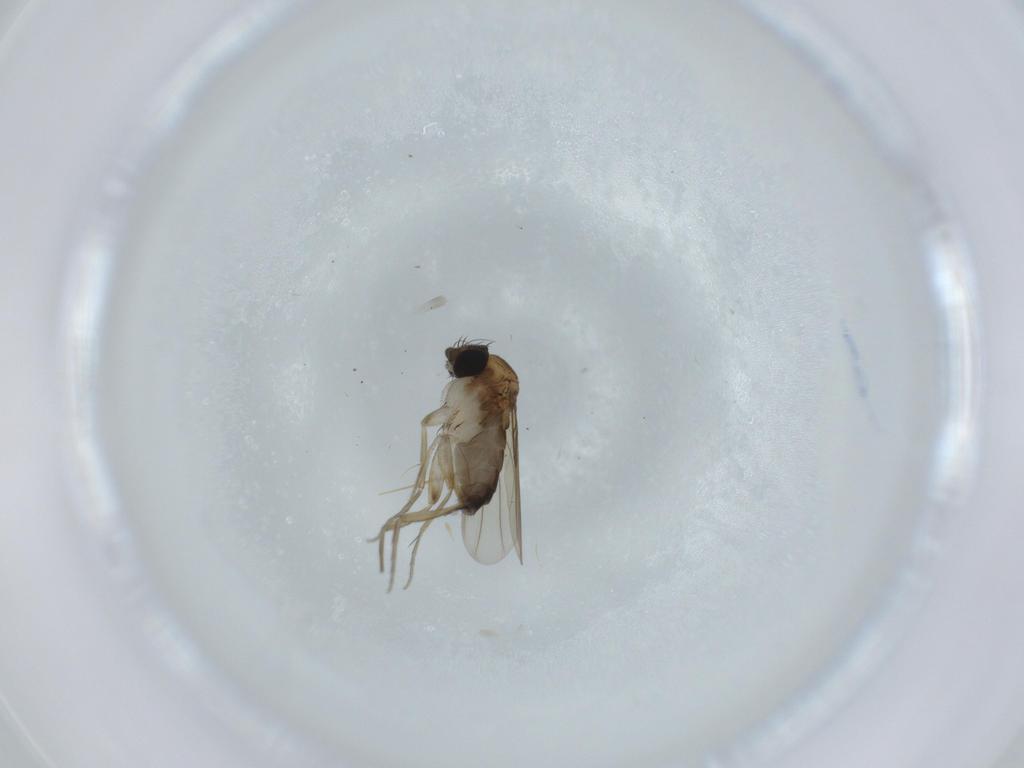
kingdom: Animalia
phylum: Arthropoda
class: Insecta
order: Diptera
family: Phoridae
